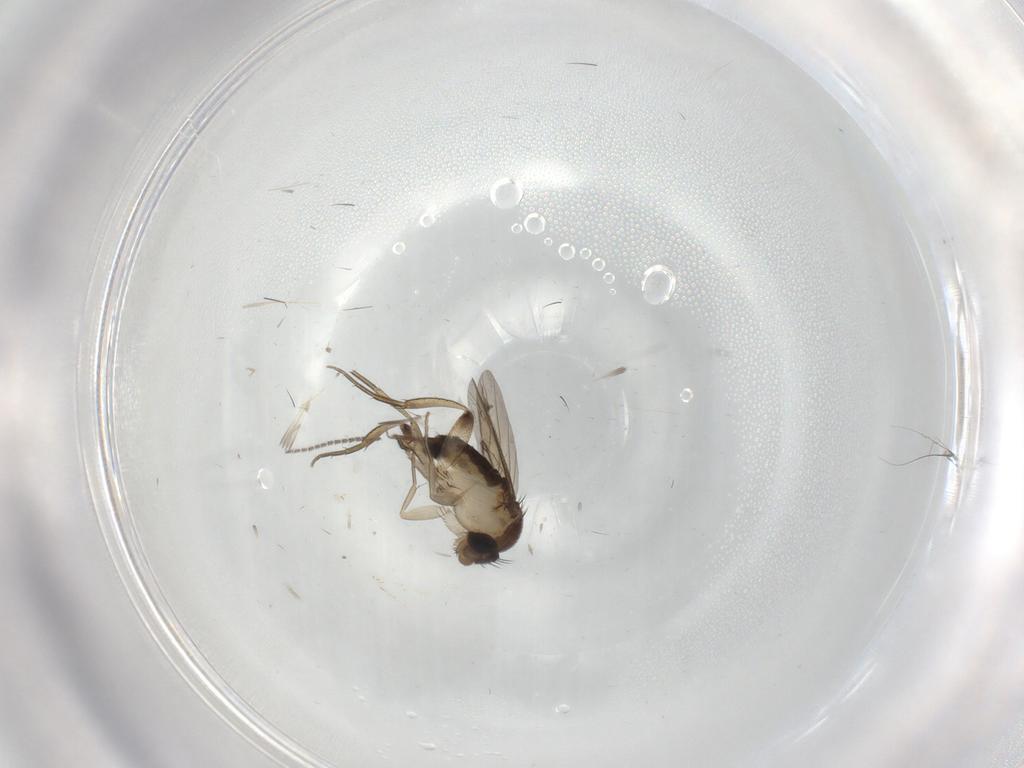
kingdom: Animalia
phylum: Arthropoda
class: Insecta
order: Diptera
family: Phoridae
